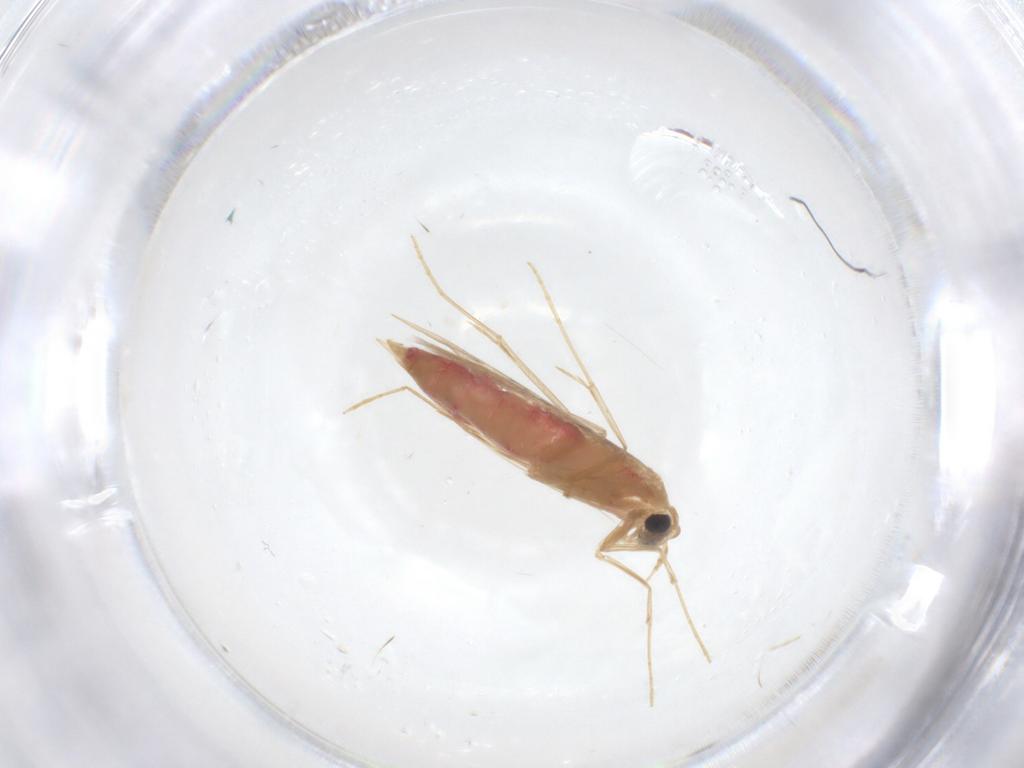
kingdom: Animalia
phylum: Arthropoda
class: Insecta
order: Lepidoptera
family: Bedelliidae
